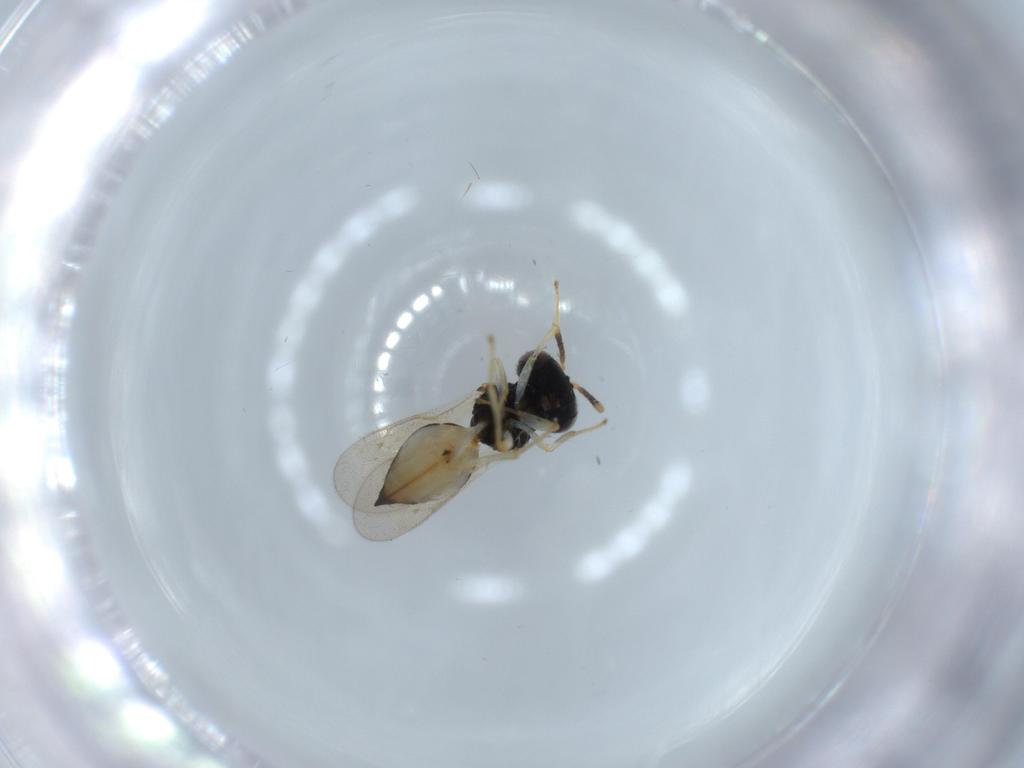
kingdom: Animalia
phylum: Arthropoda
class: Insecta
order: Hymenoptera
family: Pteromalidae
